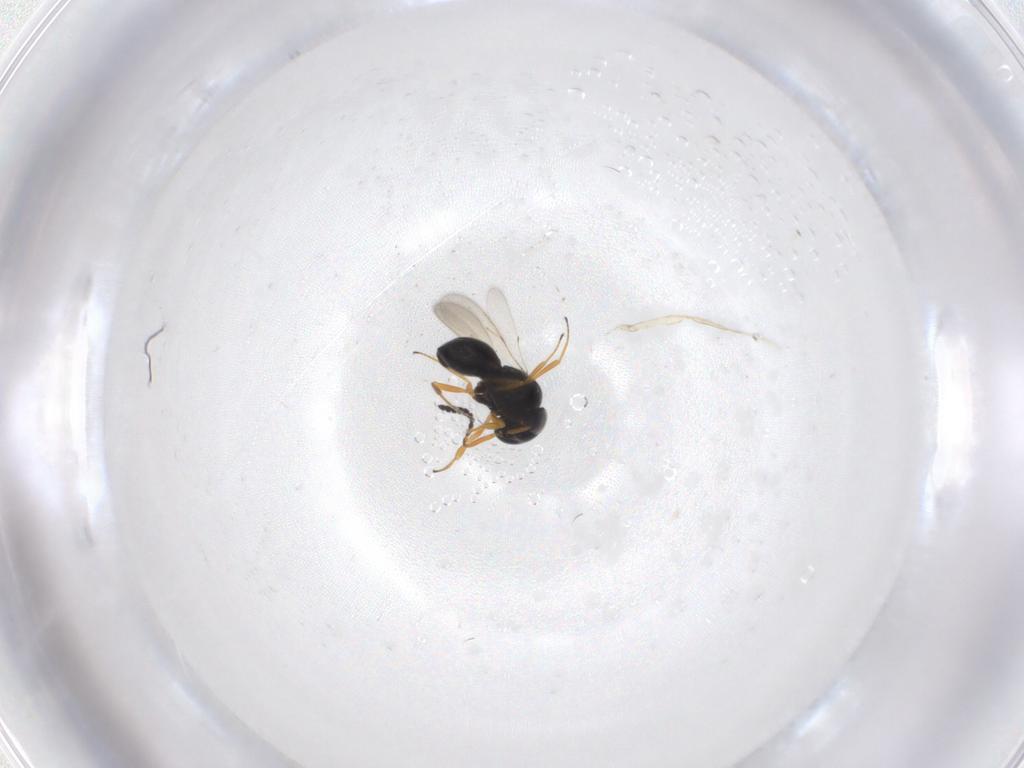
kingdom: Animalia
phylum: Arthropoda
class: Insecta
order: Hymenoptera
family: Scelionidae
